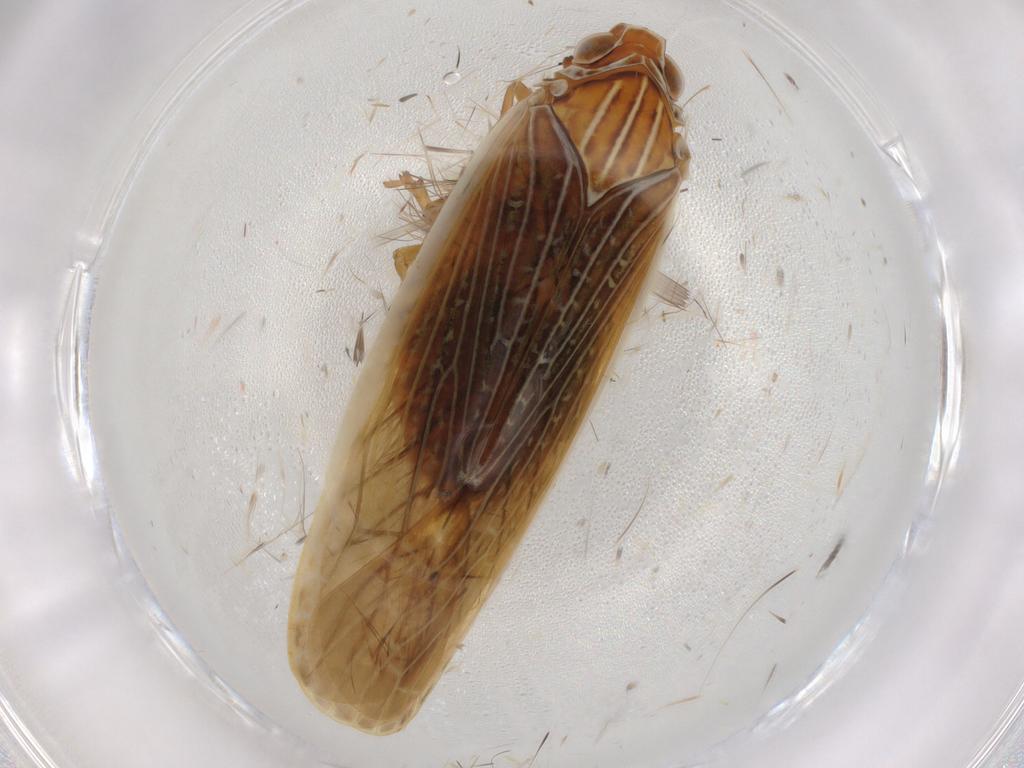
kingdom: Animalia
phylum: Arthropoda
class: Insecta
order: Hemiptera
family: Achilidae
